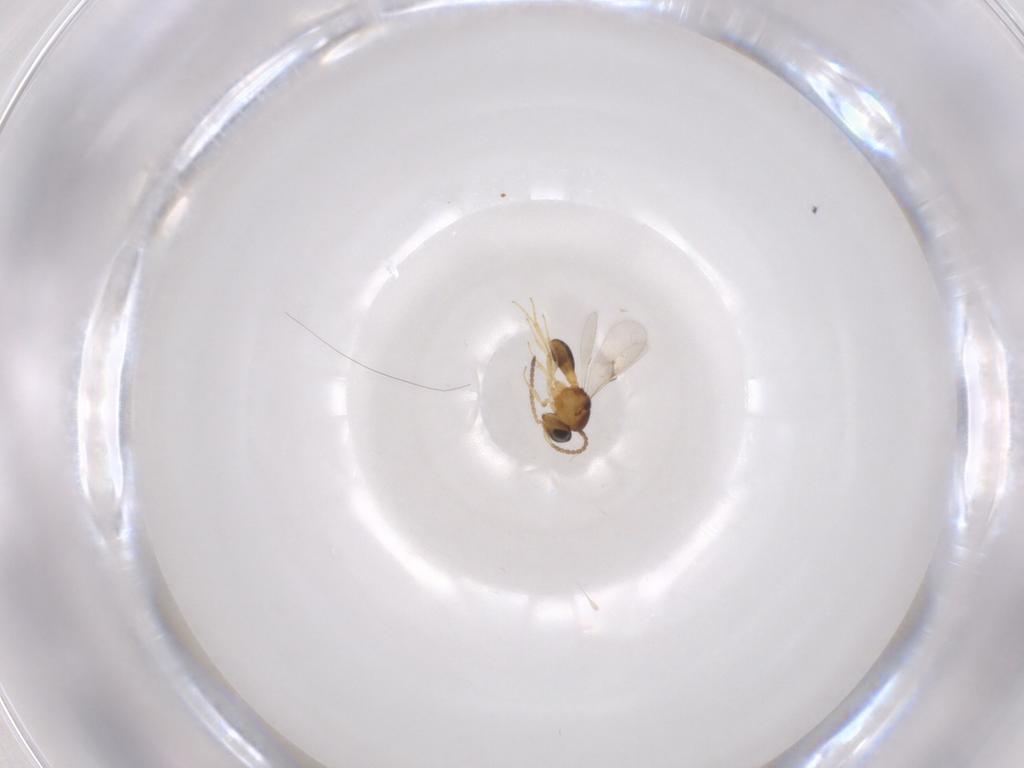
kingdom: Animalia
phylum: Arthropoda
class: Insecta
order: Hymenoptera
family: Scelionidae
